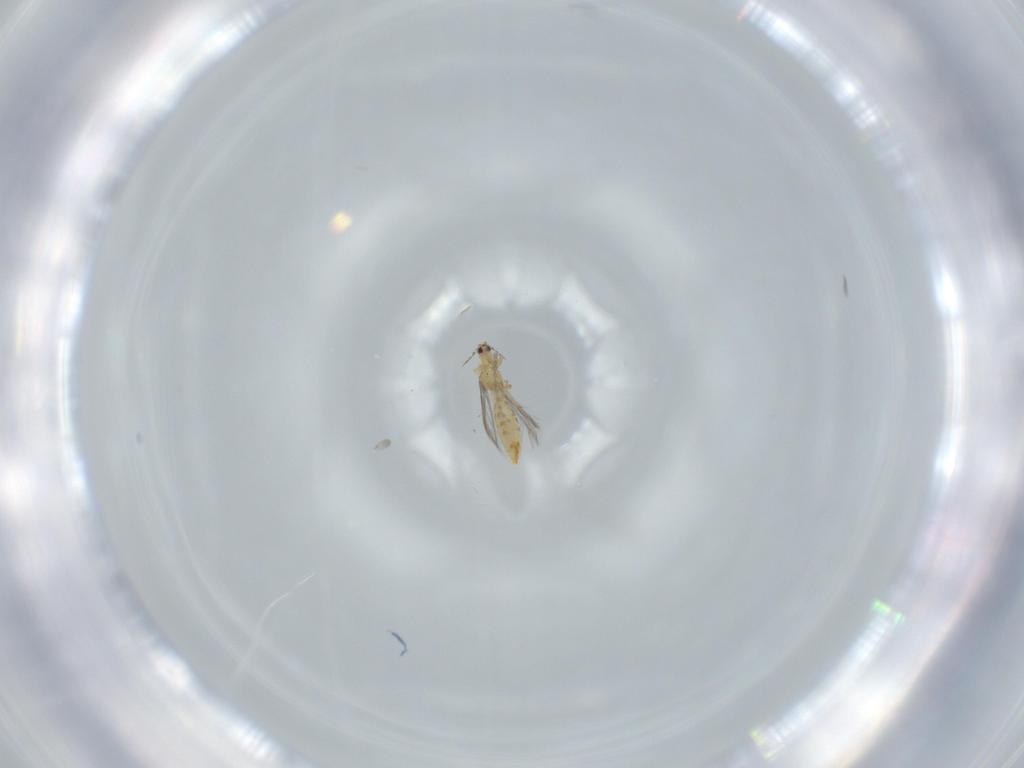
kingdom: Animalia
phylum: Arthropoda
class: Insecta
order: Thysanoptera
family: Thripidae
